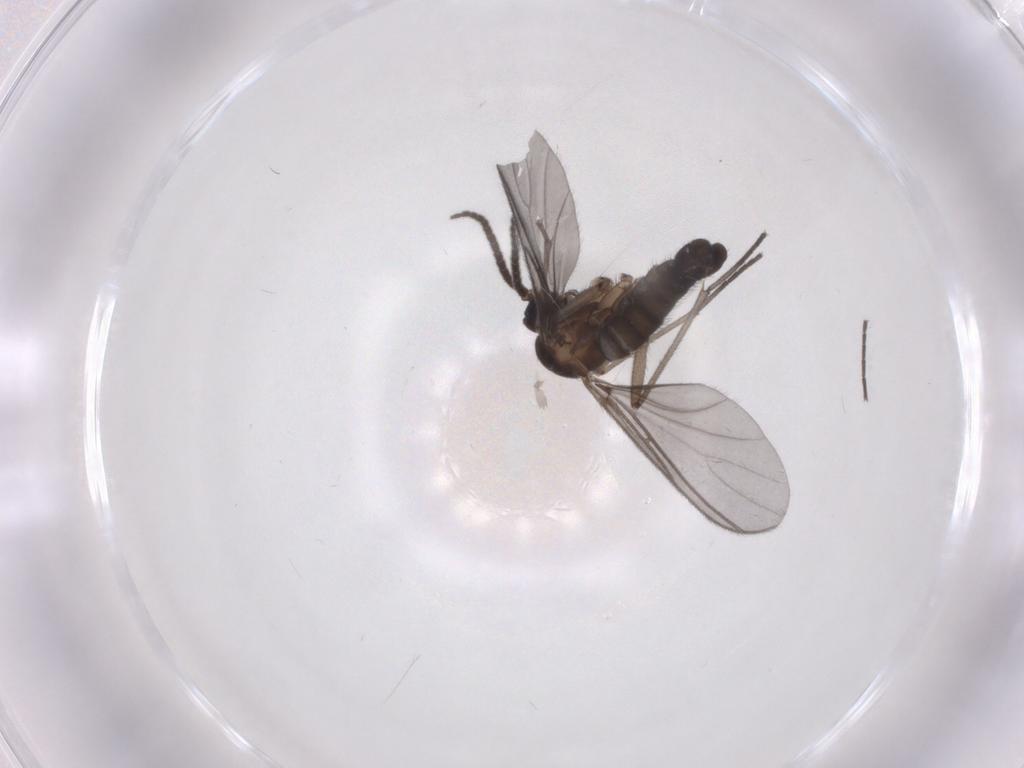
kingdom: Animalia
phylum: Arthropoda
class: Insecta
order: Diptera
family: Sciaridae
